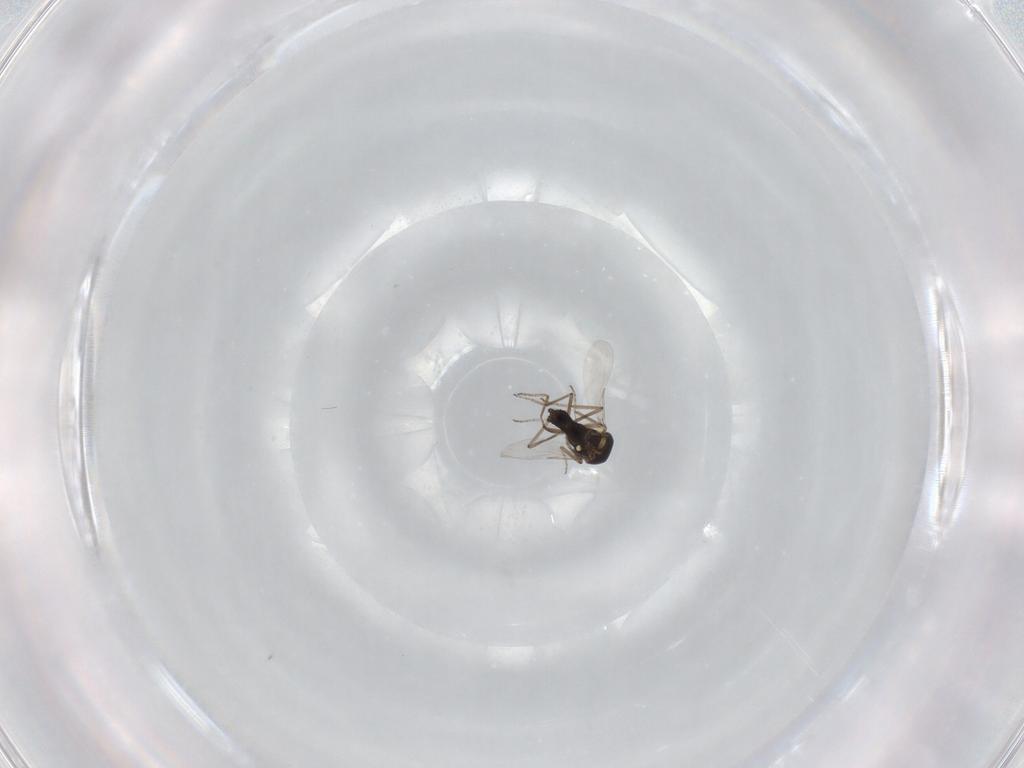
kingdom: Animalia
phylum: Arthropoda
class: Insecta
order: Diptera
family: Ceratopogonidae
